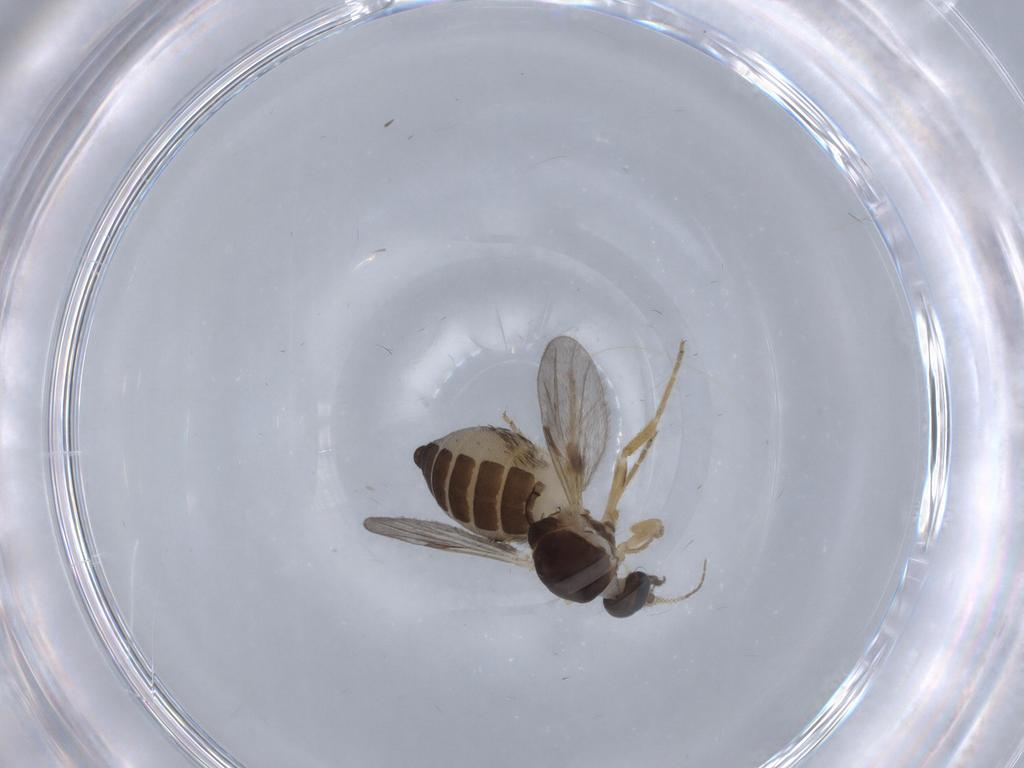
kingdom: Animalia
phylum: Arthropoda
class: Insecta
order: Diptera
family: Ceratopogonidae
